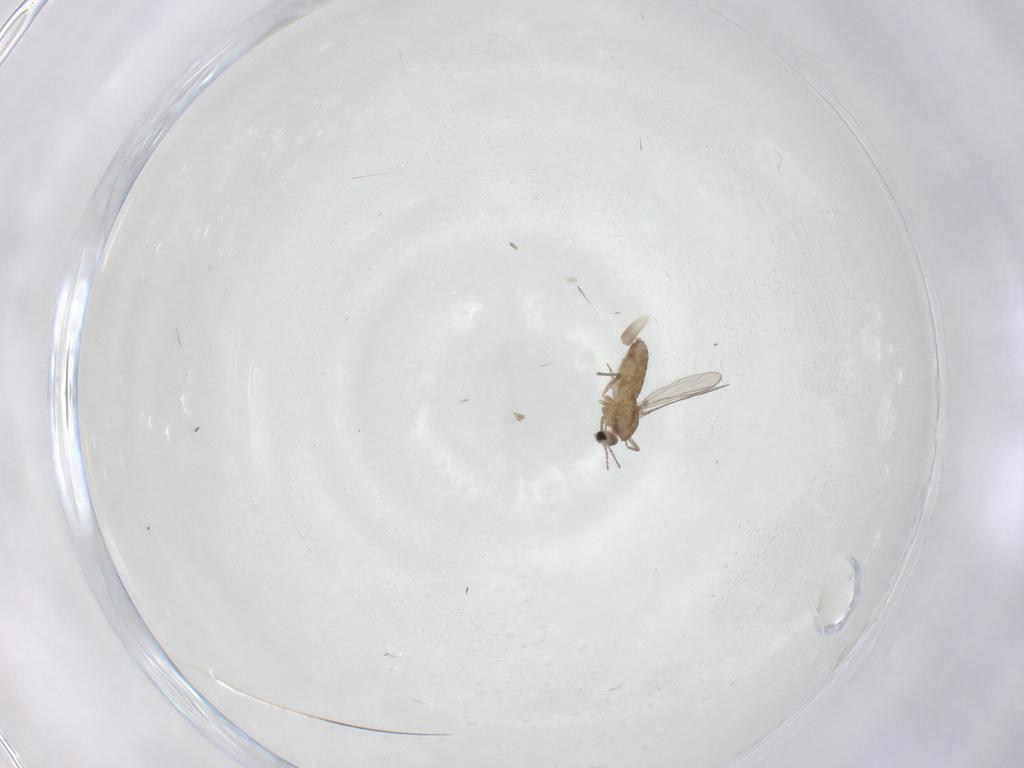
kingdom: Animalia
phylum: Arthropoda
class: Insecta
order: Diptera
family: Chironomidae
